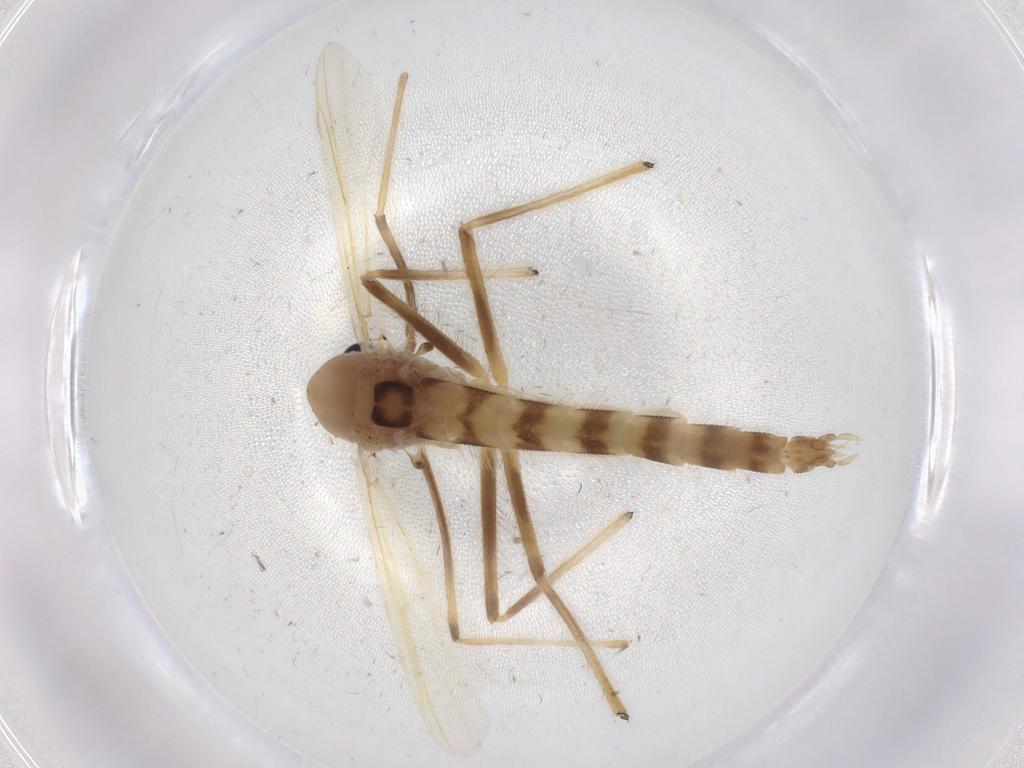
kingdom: Animalia
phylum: Arthropoda
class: Insecta
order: Diptera
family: Chironomidae
